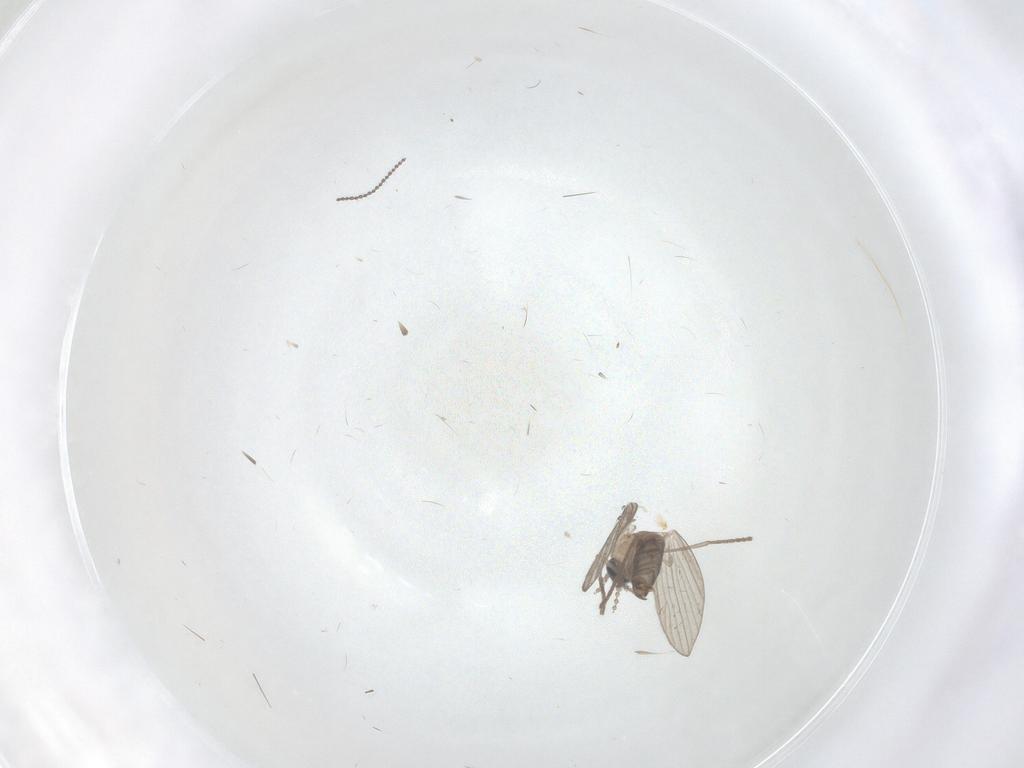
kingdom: Animalia
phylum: Arthropoda
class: Insecta
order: Diptera
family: Psychodidae
